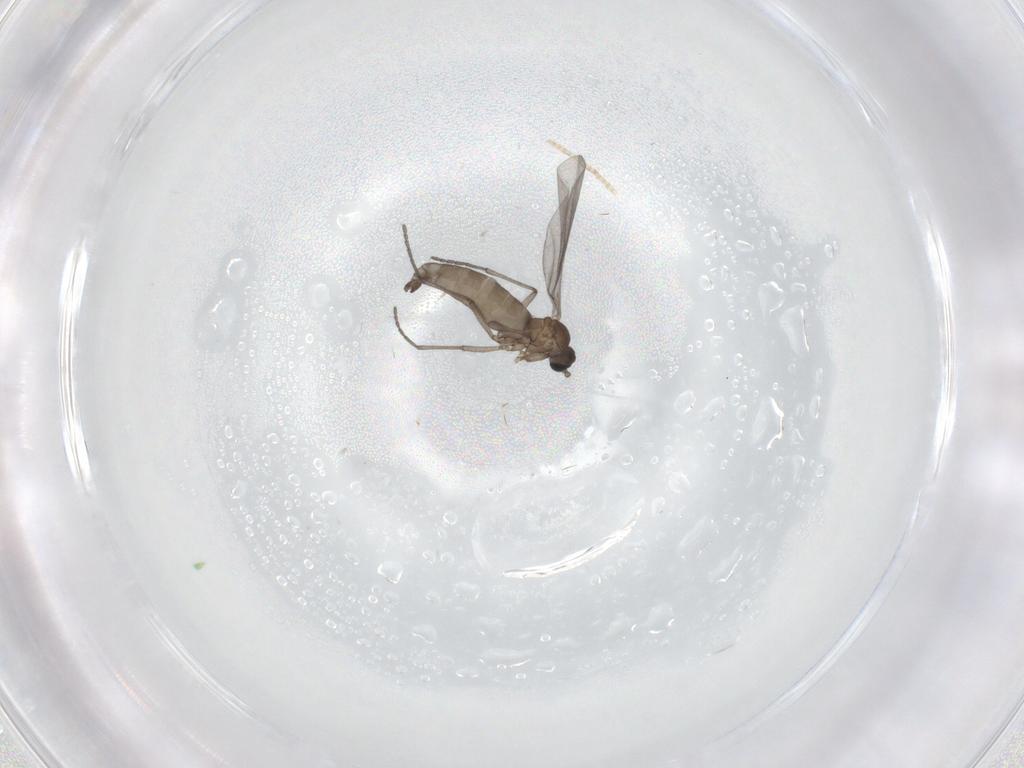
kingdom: Animalia
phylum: Arthropoda
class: Insecta
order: Diptera
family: Sciaridae
